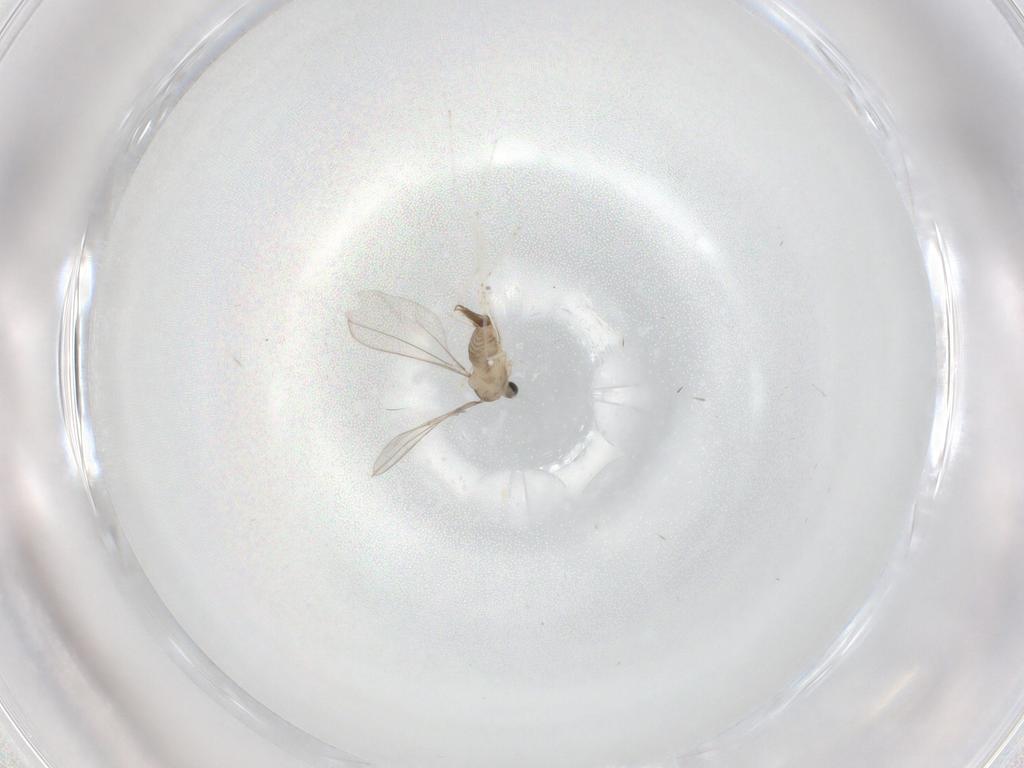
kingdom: Animalia
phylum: Arthropoda
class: Insecta
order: Diptera
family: Cecidomyiidae
